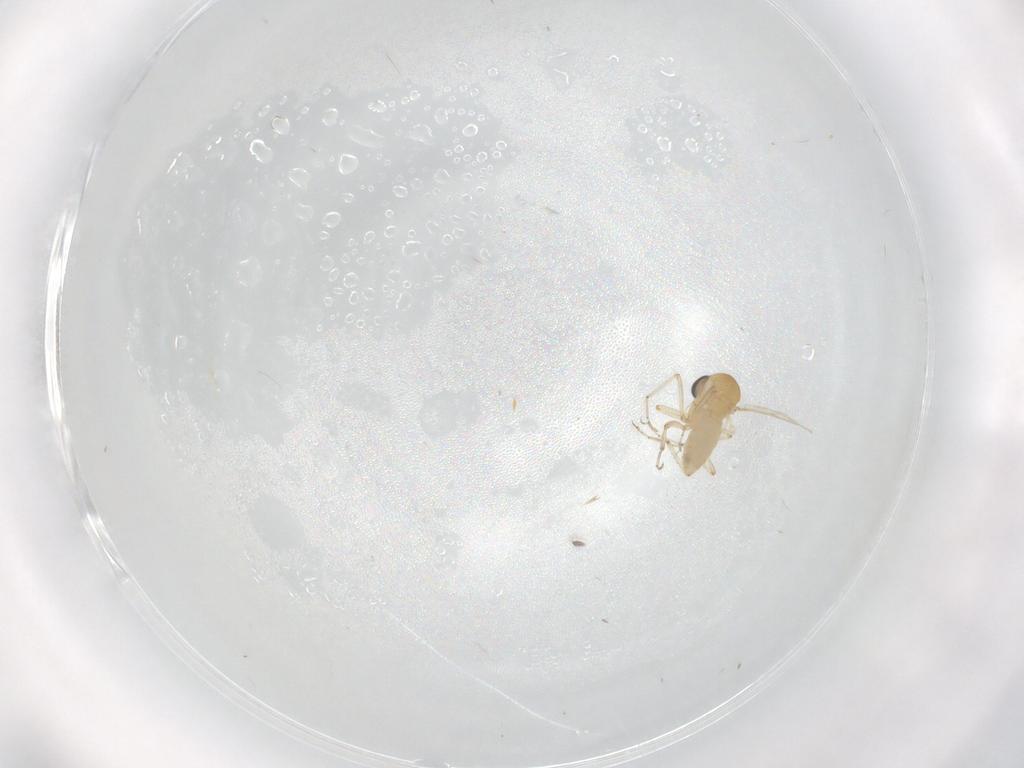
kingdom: Animalia
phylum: Arthropoda
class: Insecta
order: Diptera
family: Ceratopogonidae
